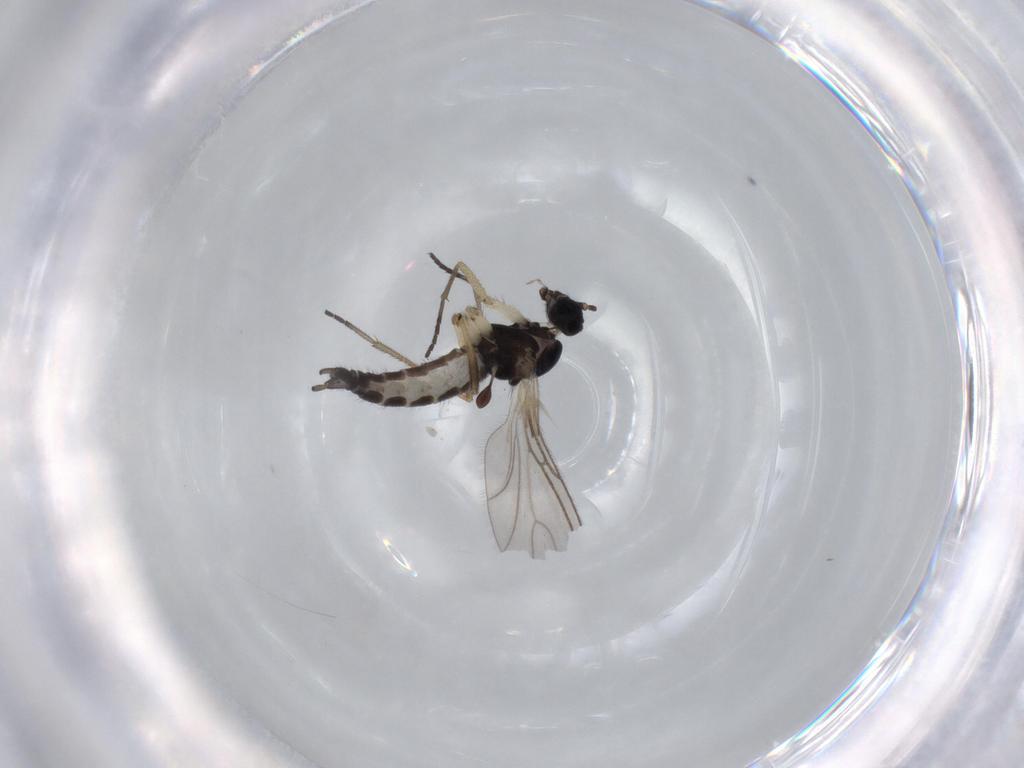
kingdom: Animalia
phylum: Arthropoda
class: Insecta
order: Diptera
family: Sciaridae
